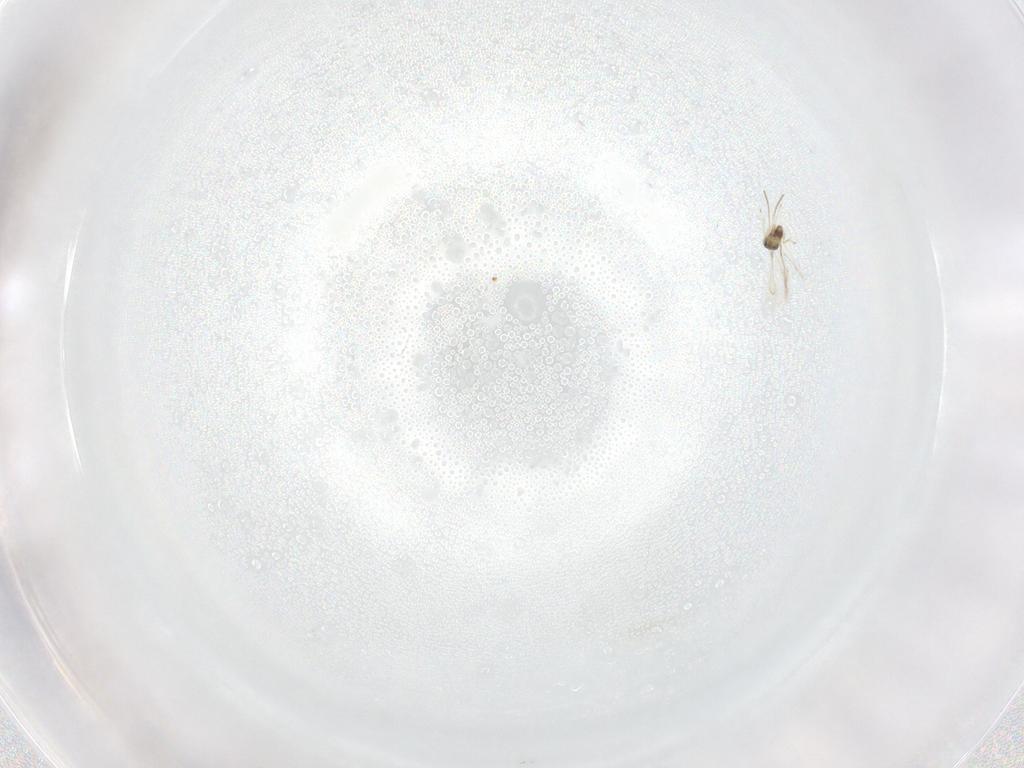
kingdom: Animalia
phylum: Arthropoda
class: Insecta
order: Hymenoptera
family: Mymaridae
